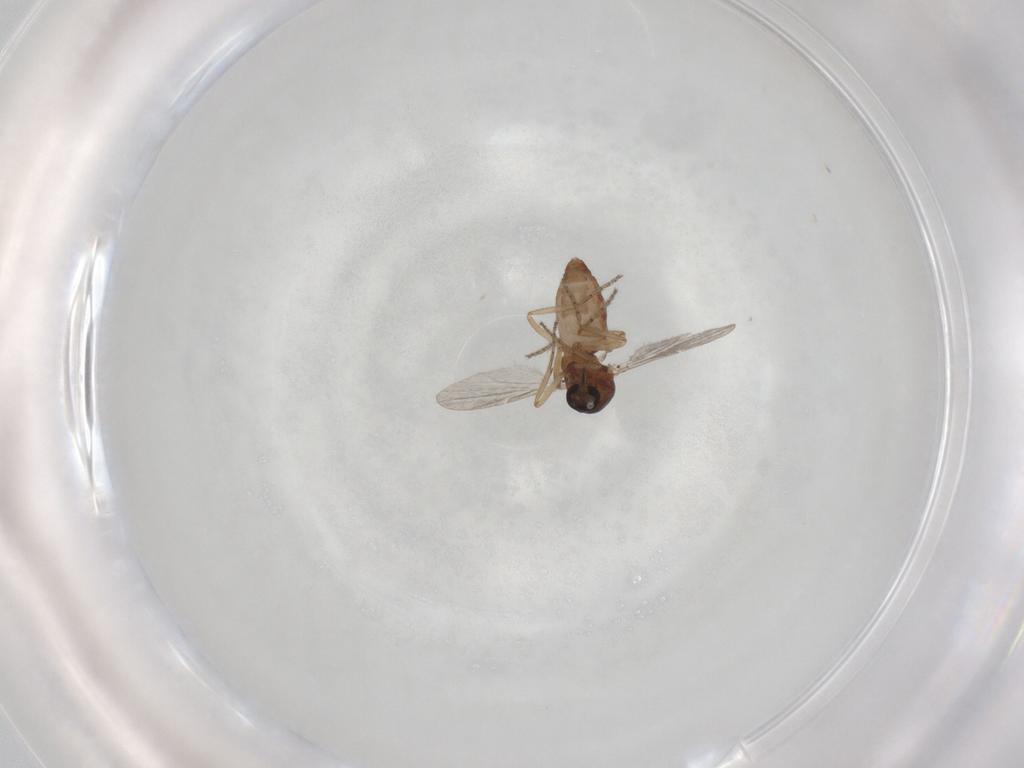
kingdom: Animalia
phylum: Arthropoda
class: Insecta
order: Diptera
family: Ceratopogonidae
